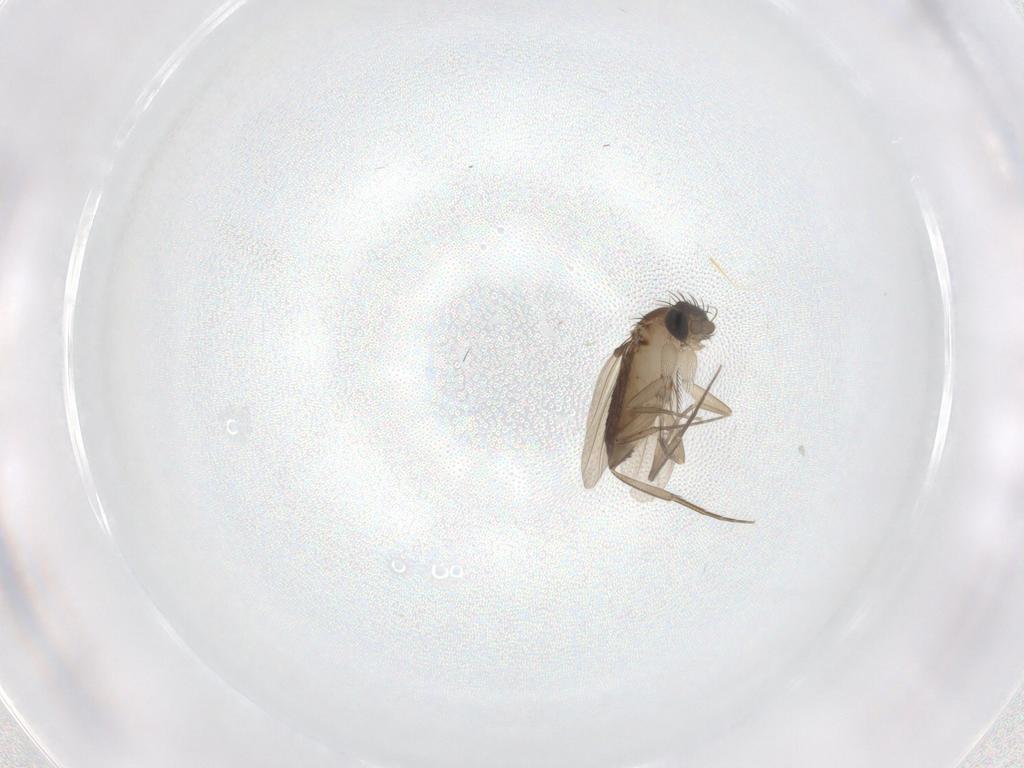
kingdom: Animalia
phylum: Arthropoda
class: Insecta
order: Diptera
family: Phoridae
